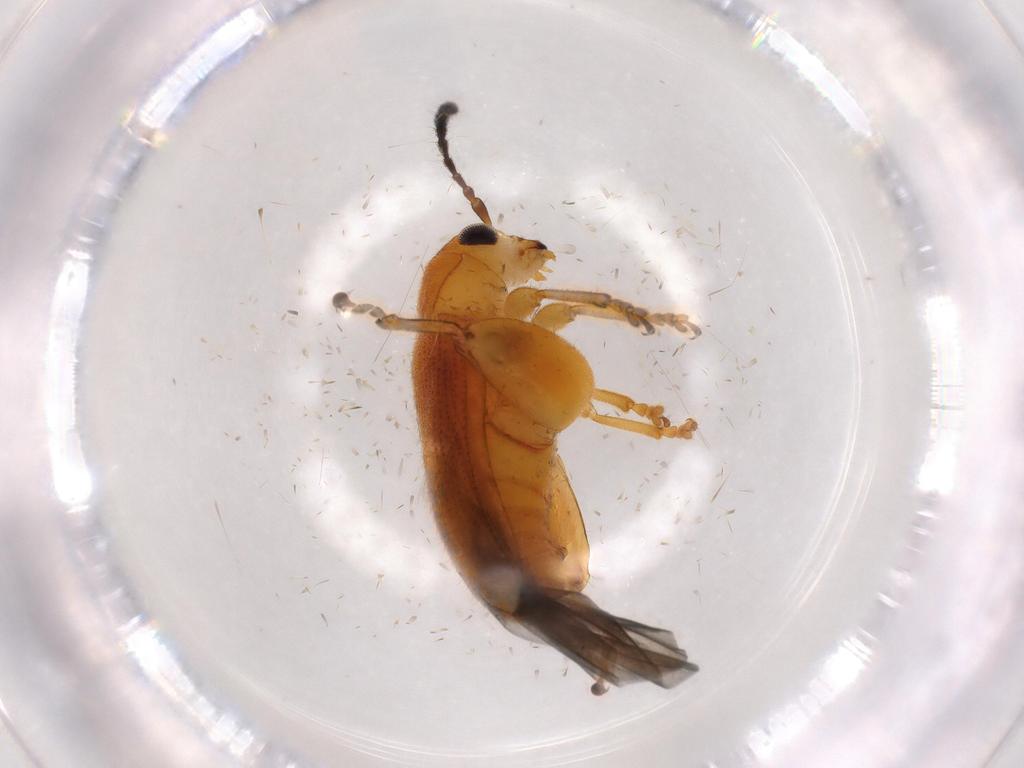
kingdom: Animalia
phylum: Arthropoda
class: Insecta
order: Coleoptera
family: Chrysomelidae
